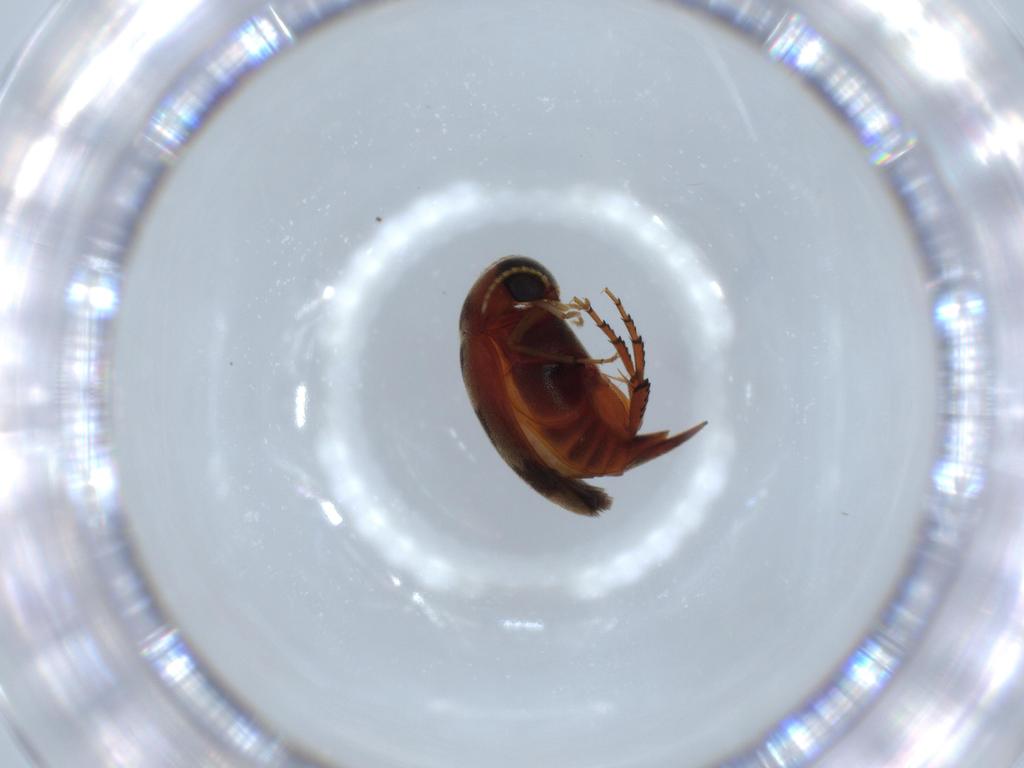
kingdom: Animalia
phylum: Arthropoda
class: Insecta
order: Coleoptera
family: Mordellidae
